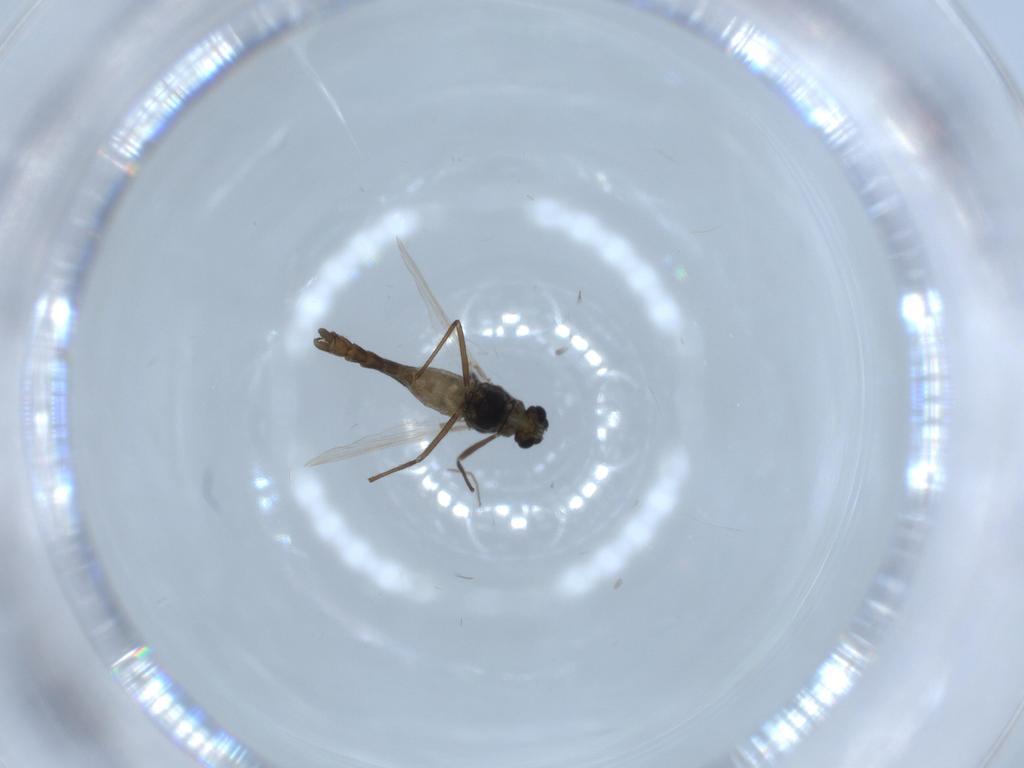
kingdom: Animalia
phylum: Arthropoda
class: Insecta
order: Diptera
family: Chironomidae
